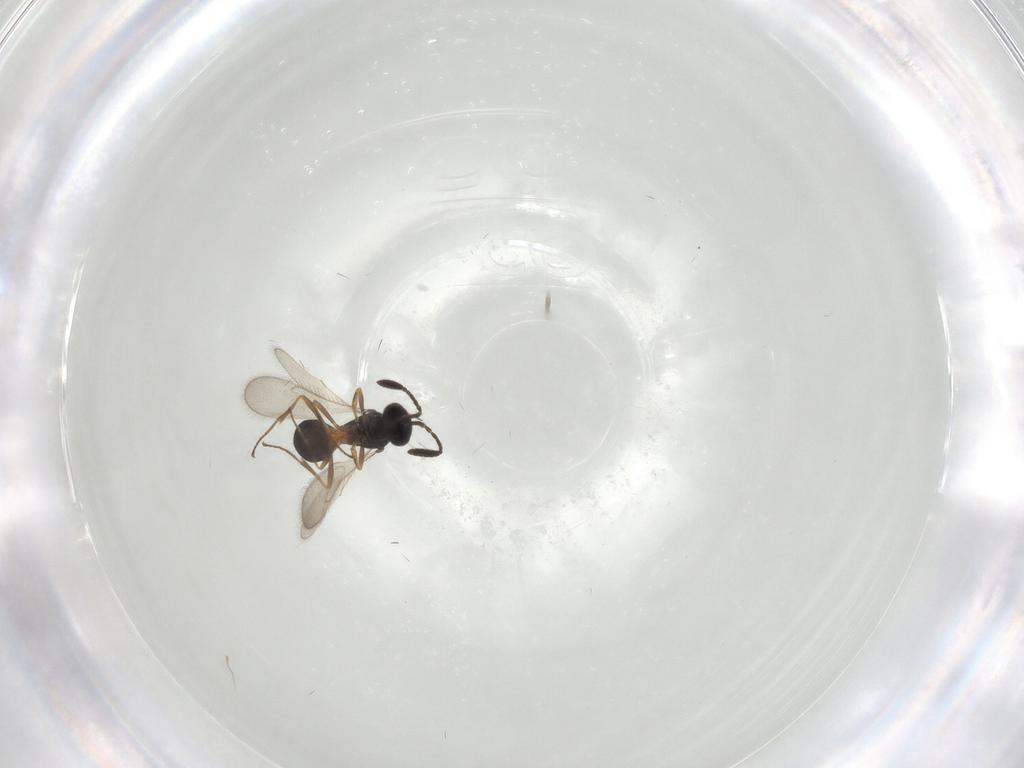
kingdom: Animalia
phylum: Arthropoda
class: Insecta
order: Hymenoptera
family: Scelionidae
